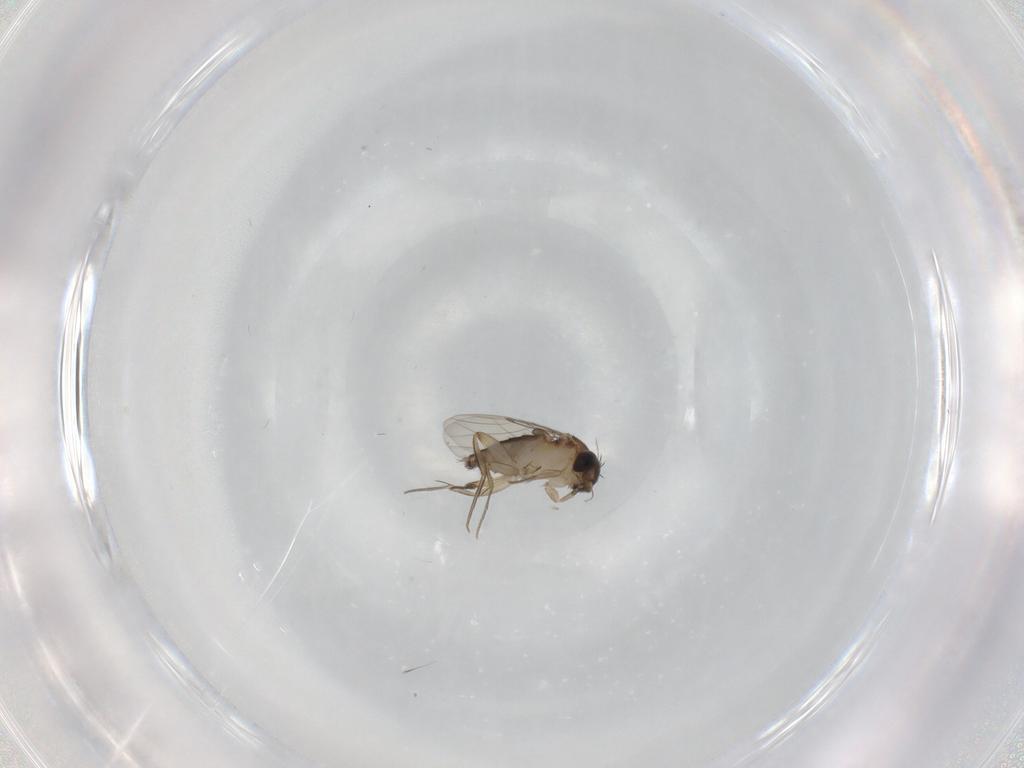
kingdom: Animalia
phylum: Arthropoda
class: Insecta
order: Diptera
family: Phoridae
